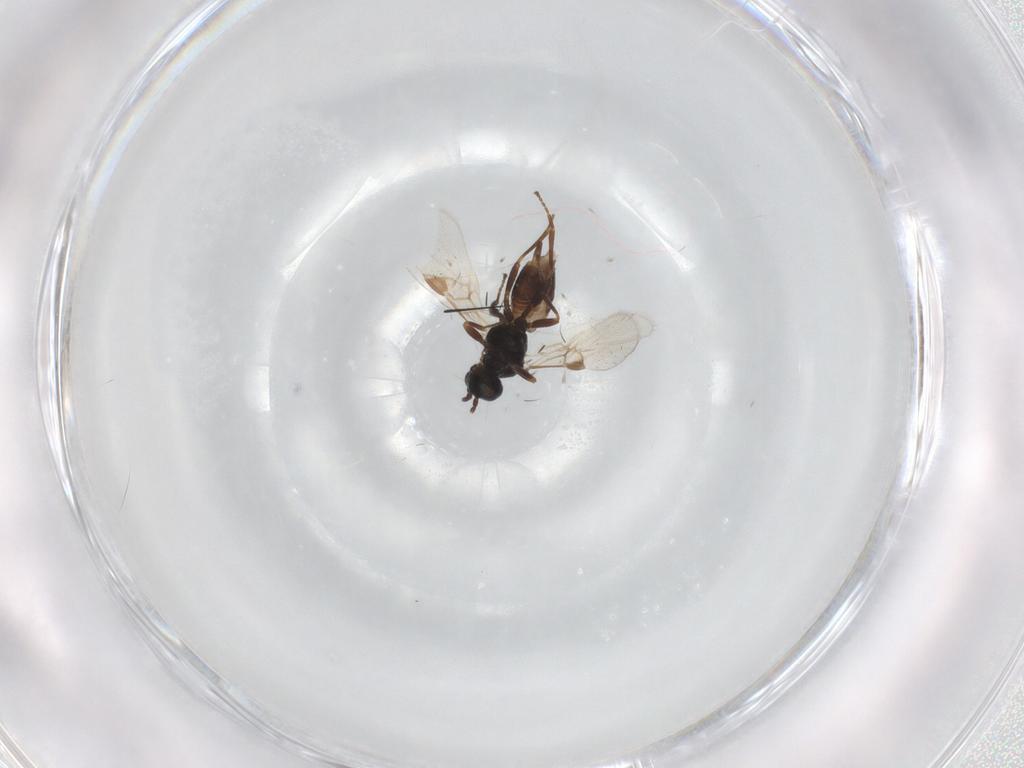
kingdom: Animalia
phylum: Arthropoda
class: Insecta
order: Hymenoptera
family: Braconidae
